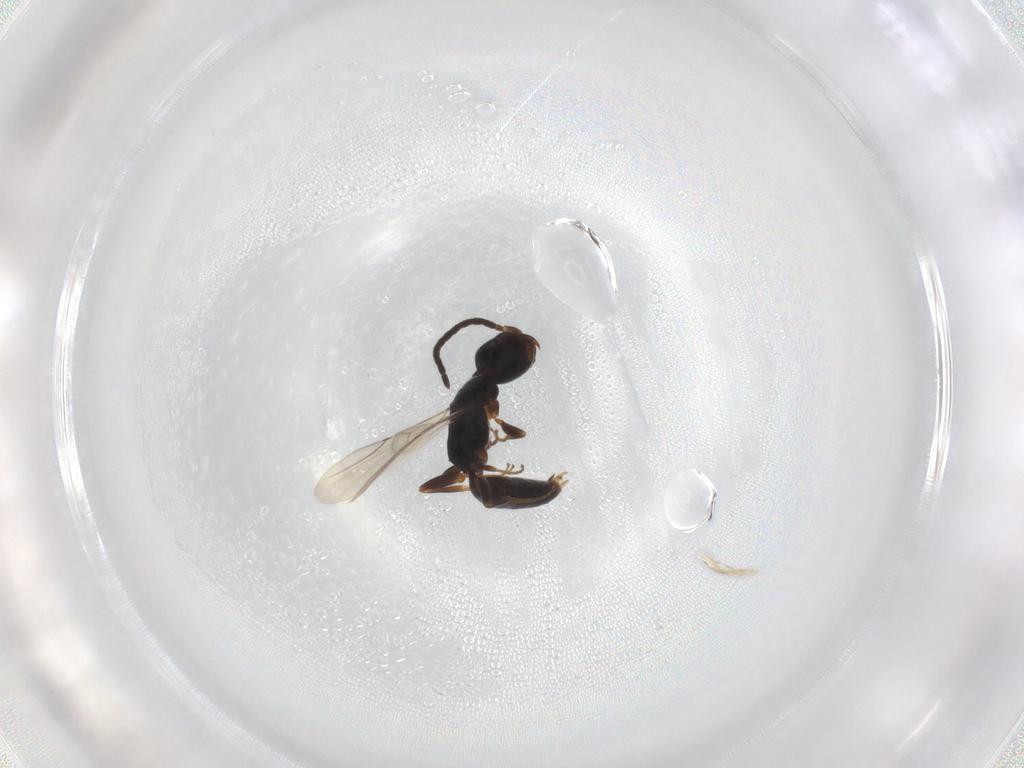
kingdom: Animalia
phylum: Arthropoda
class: Insecta
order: Hymenoptera
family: Bethylidae
